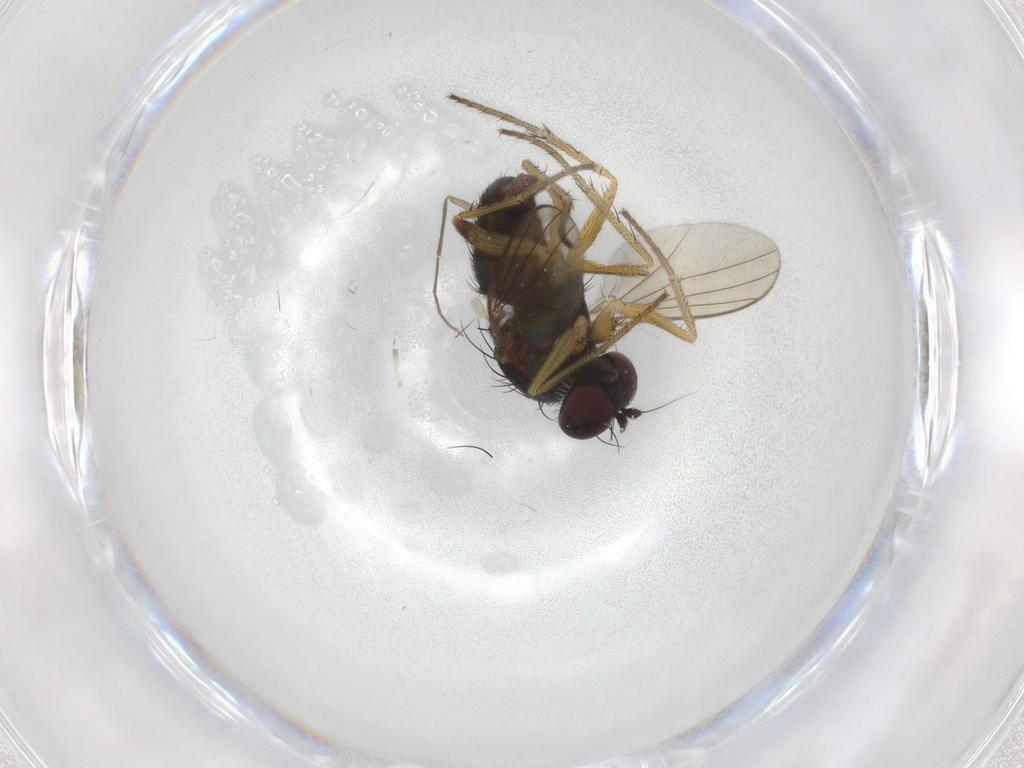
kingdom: Animalia
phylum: Arthropoda
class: Insecta
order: Diptera
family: Dolichopodidae
